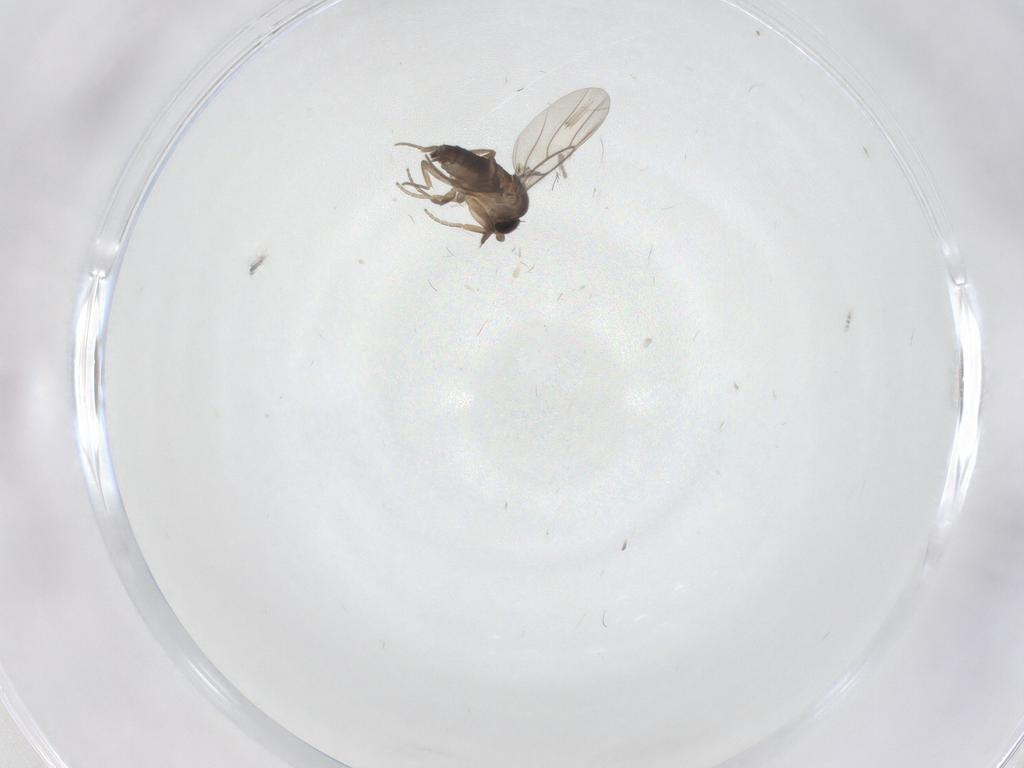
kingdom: Animalia
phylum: Arthropoda
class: Insecta
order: Diptera
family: Phoridae
